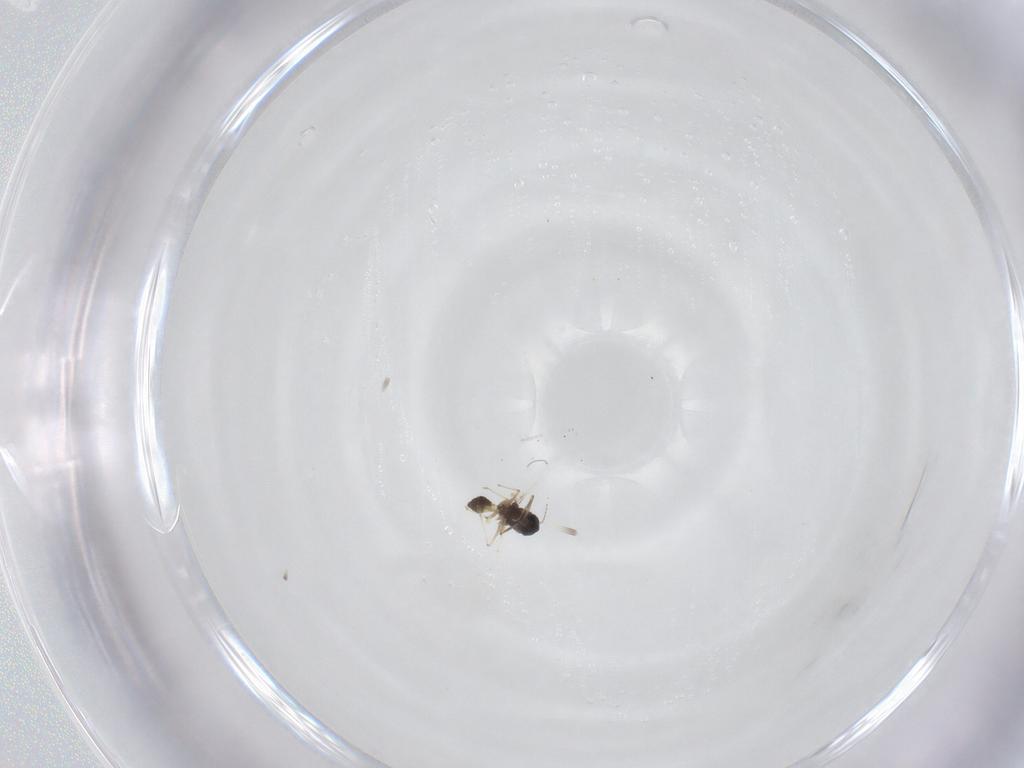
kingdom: Animalia
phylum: Arthropoda
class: Insecta
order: Diptera
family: Chironomidae
